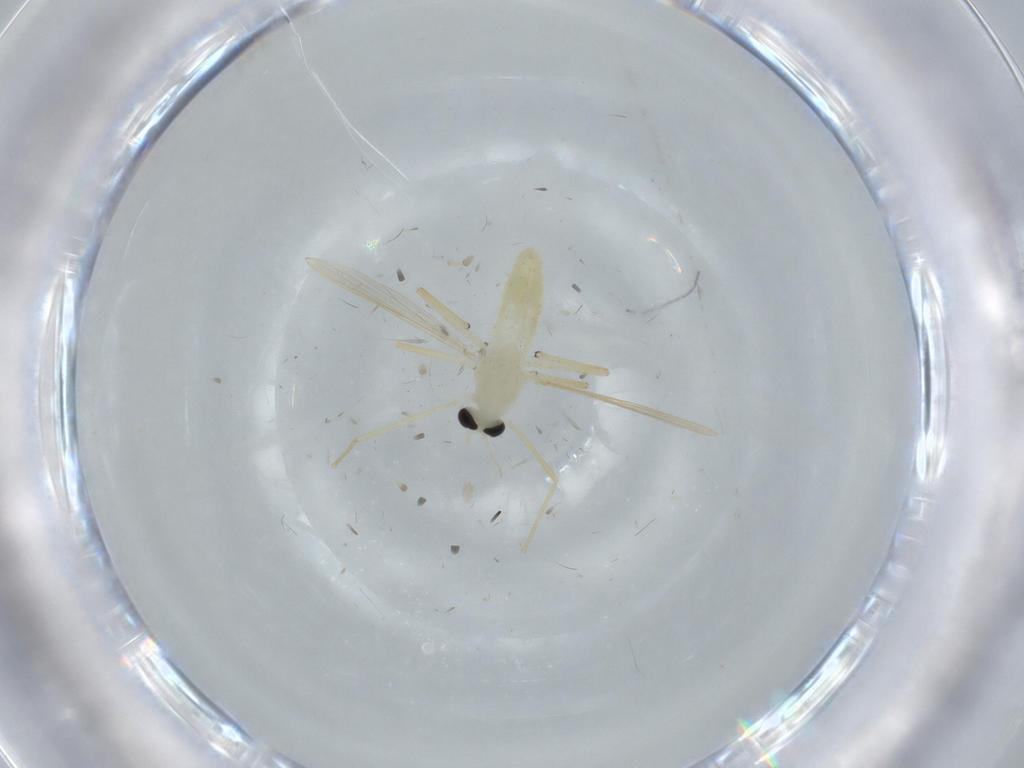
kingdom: Animalia
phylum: Arthropoda
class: Insecta
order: Diptera
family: Chironomidae
